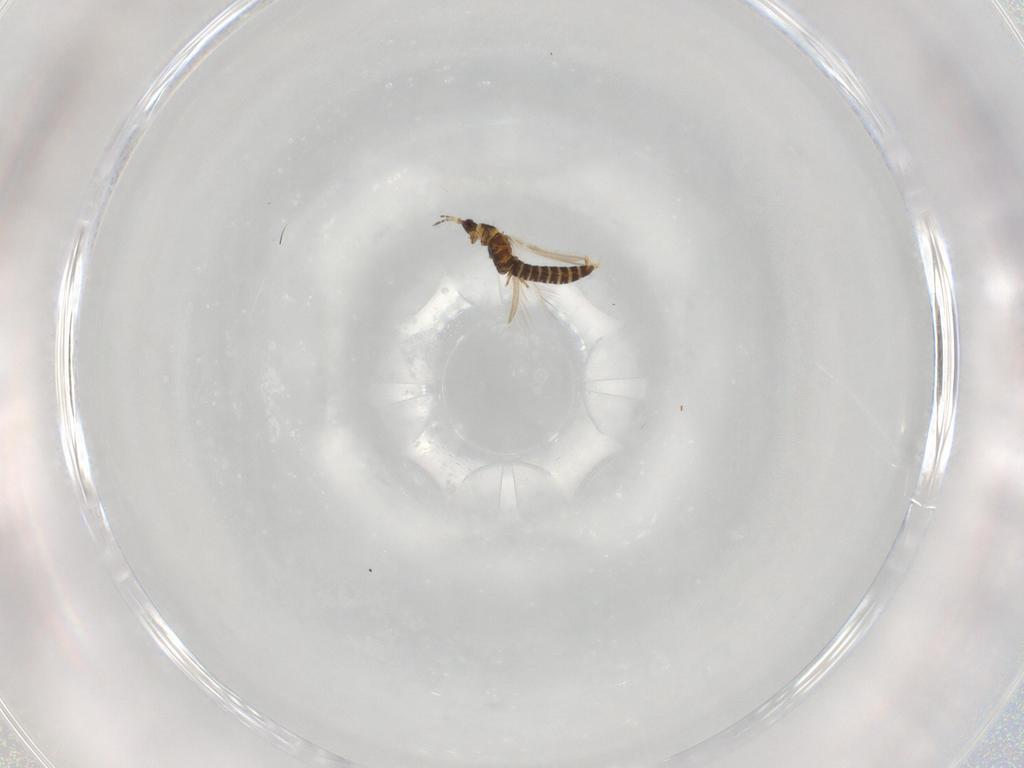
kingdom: Animalia
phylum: Arthropoda
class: Insecta
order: Thysanoptera
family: Thripidae
